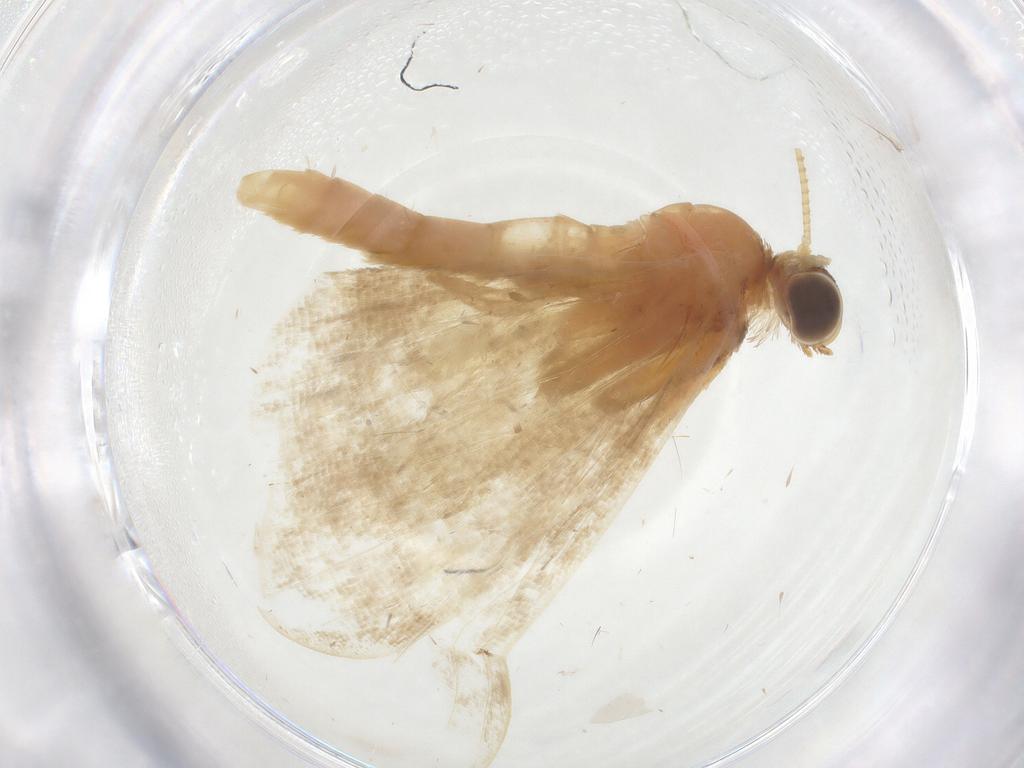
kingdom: Animalia
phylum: Arthropoda
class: Insecta
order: Lepidoptera
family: Geometridae
